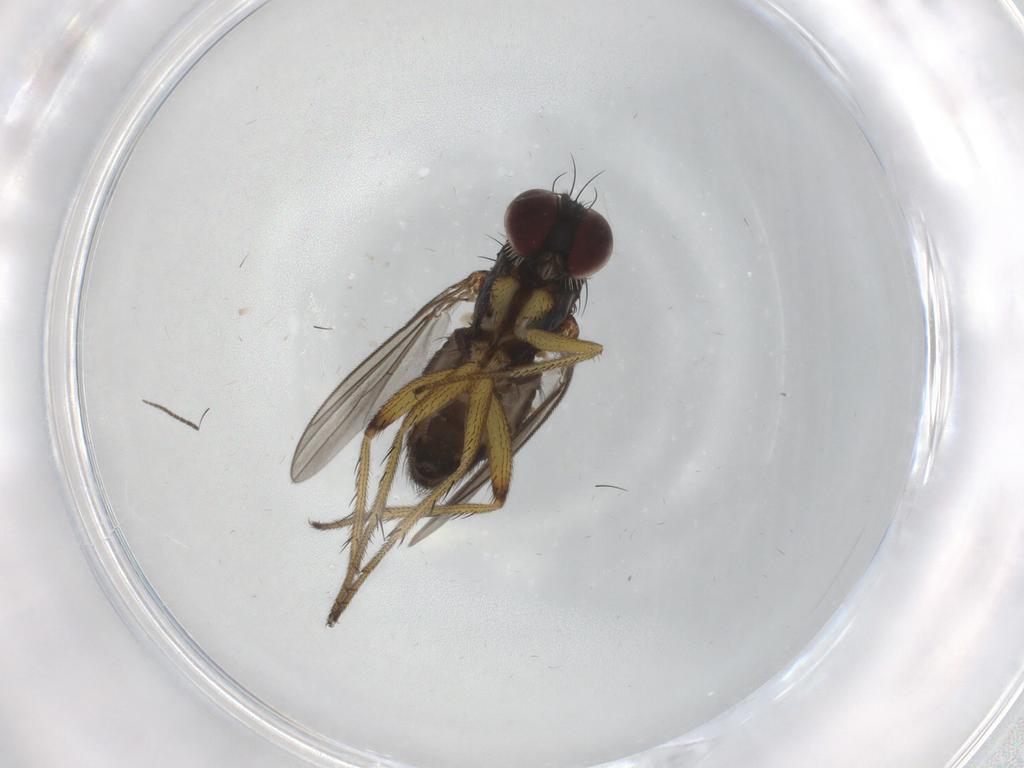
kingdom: Animalia
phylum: Arthropoda
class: Insecta
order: Diptera
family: Dolichopodidae
